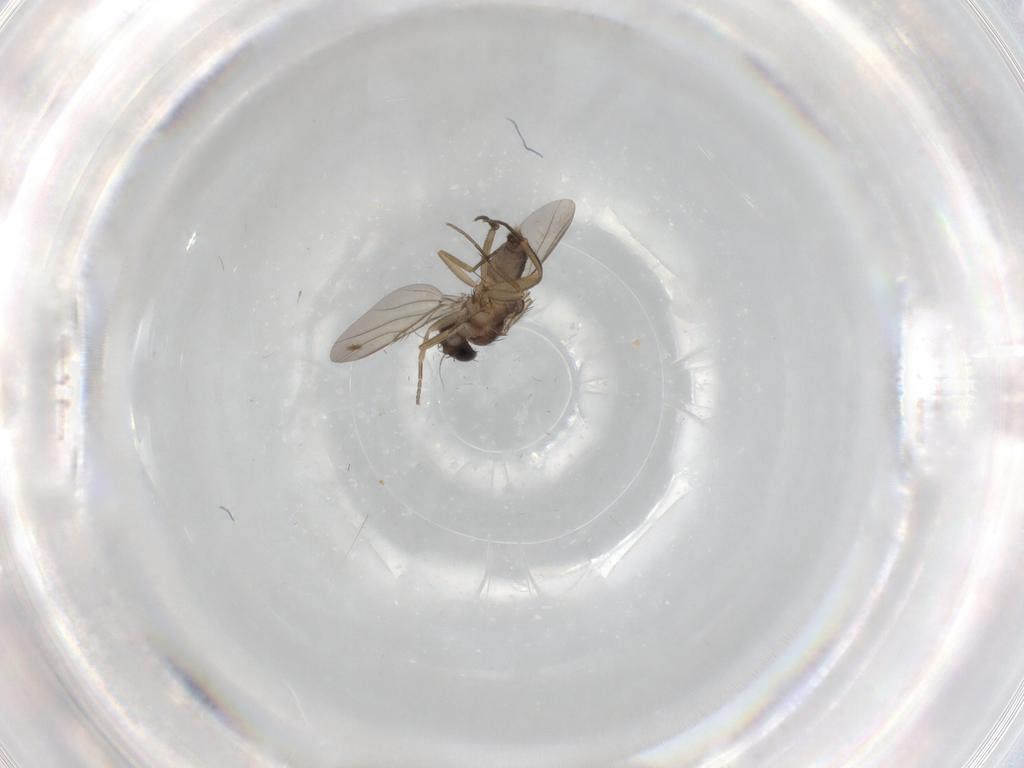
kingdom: Animalia
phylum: Arthropoda
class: Insecta
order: Diptera
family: Phoridae
